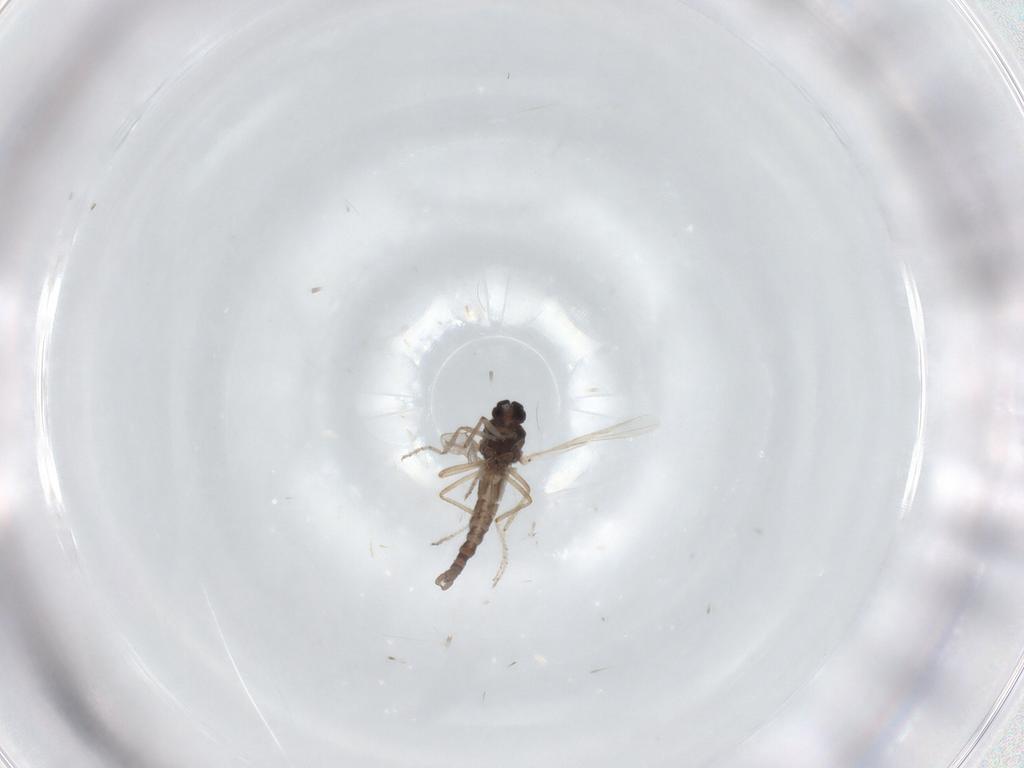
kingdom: Animalia
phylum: Arthropoda
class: Insecta
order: Diptera
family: Ceratopogonidae
